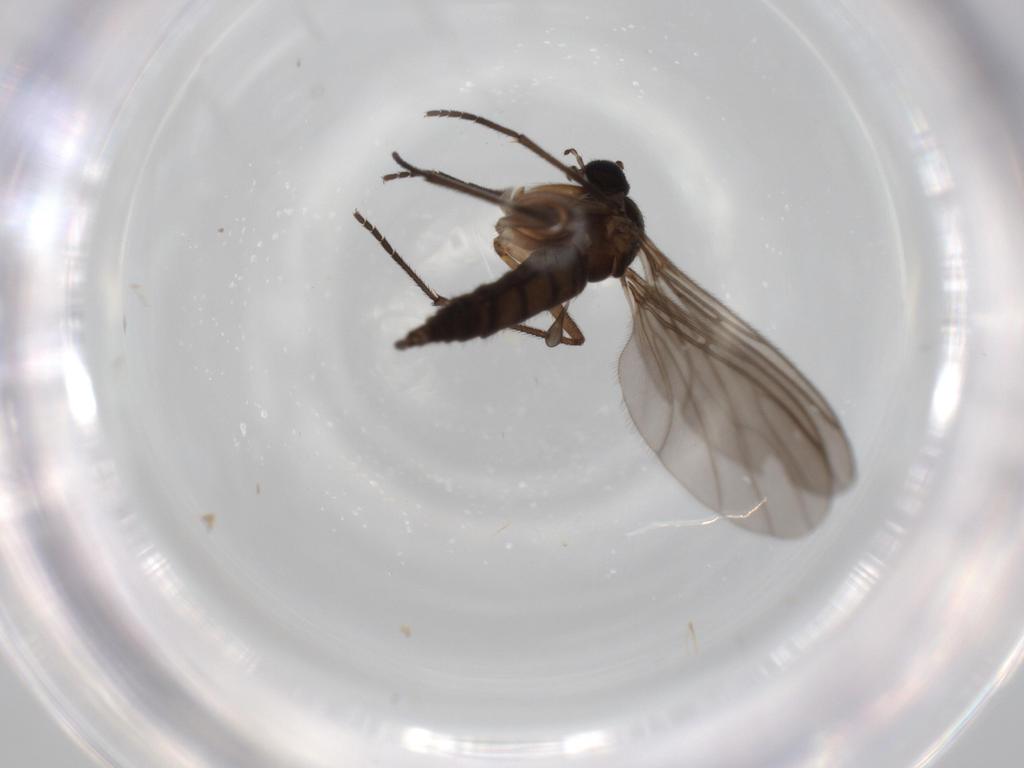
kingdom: Animalia
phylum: Arthropoda
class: Insecta
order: Diptera
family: Sciaridae
